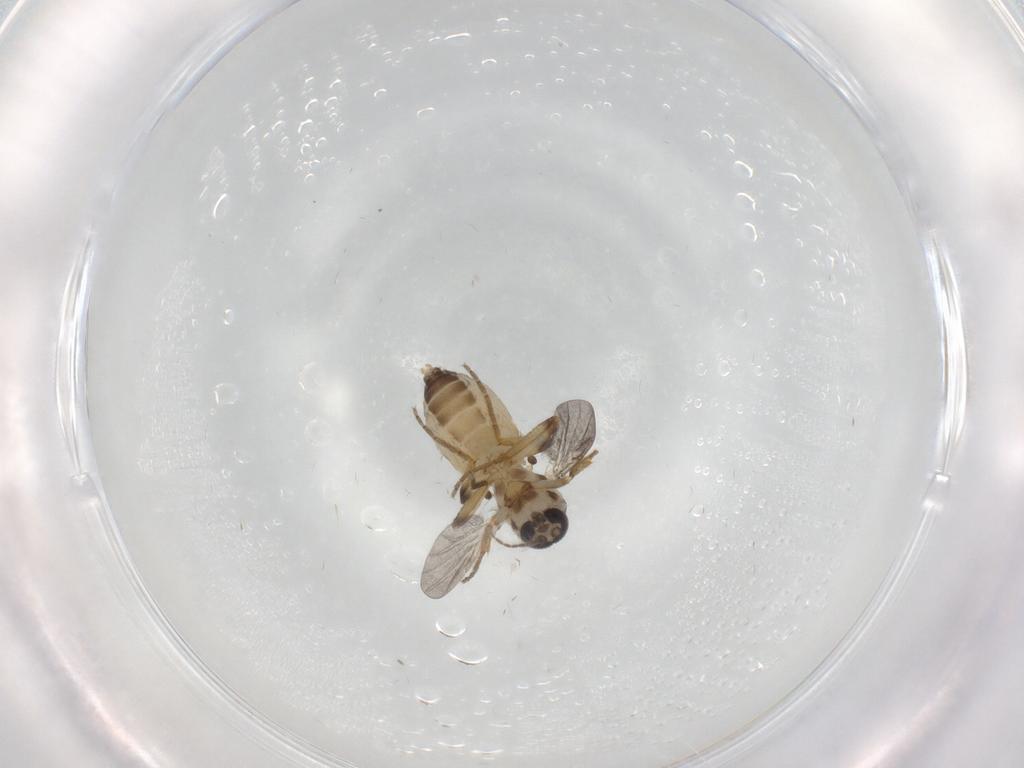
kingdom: Animalia
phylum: Arthropoda
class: Insecta
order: Diptera
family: Ceratopogonidae
